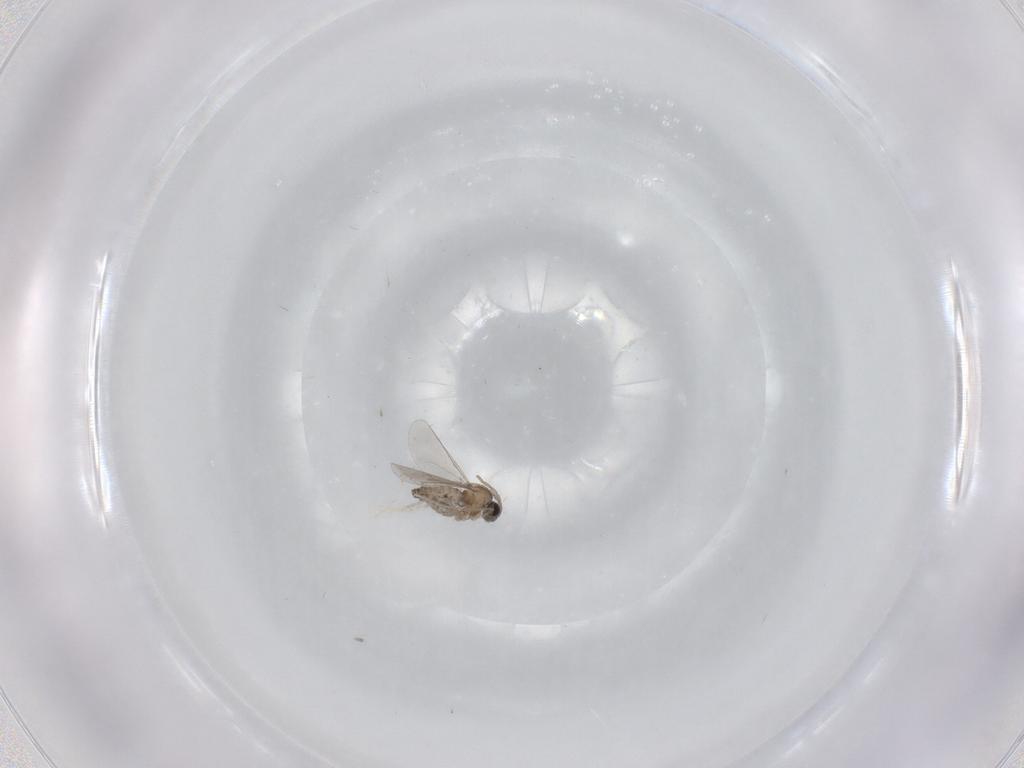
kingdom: Animalia
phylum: Arthropoda
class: Insecta
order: Diptera
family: Cecidomyiidae
